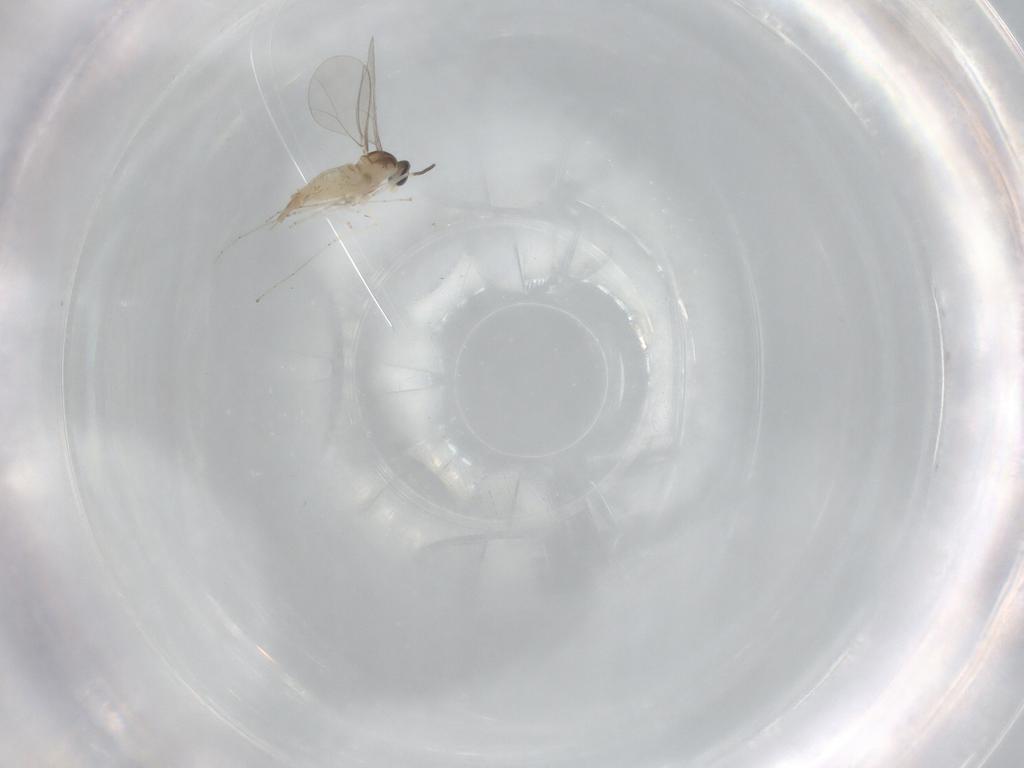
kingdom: Animalia
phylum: Arthropoda
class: Insecta
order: Diptera
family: Cecidomyiidae
